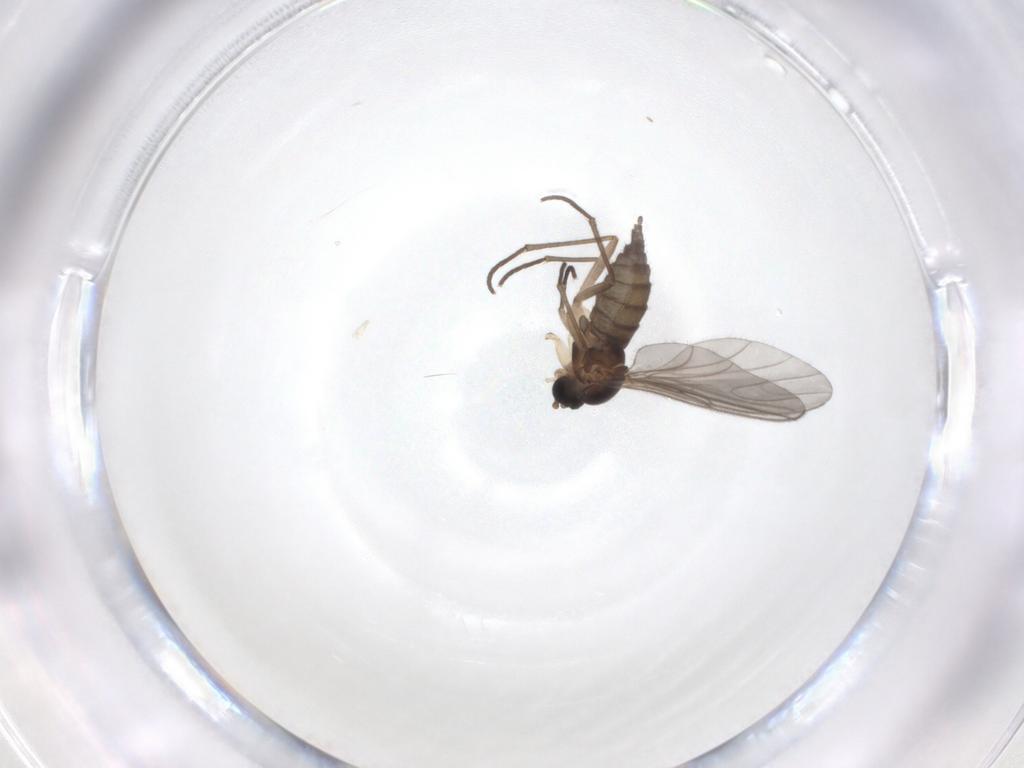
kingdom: Animalia
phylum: Arthropoda
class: Insecta
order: Diptera
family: Sciaridae
